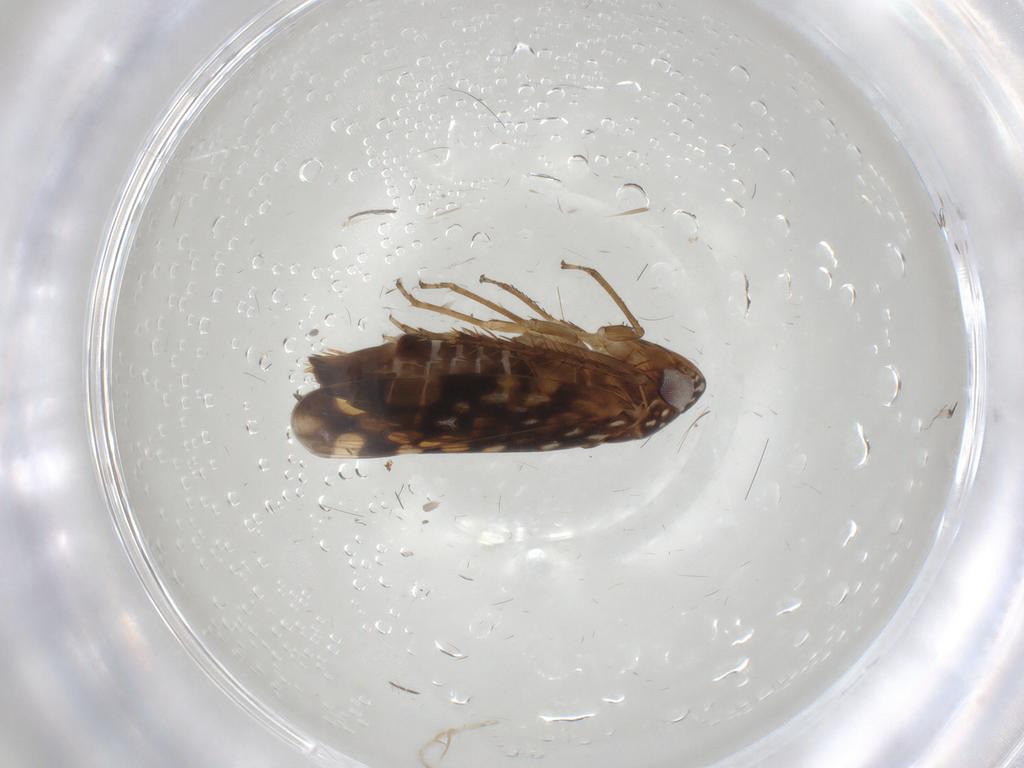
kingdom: Animalia
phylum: Arthropoda
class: Insecta
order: Hemiptera
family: Cicadellidae
